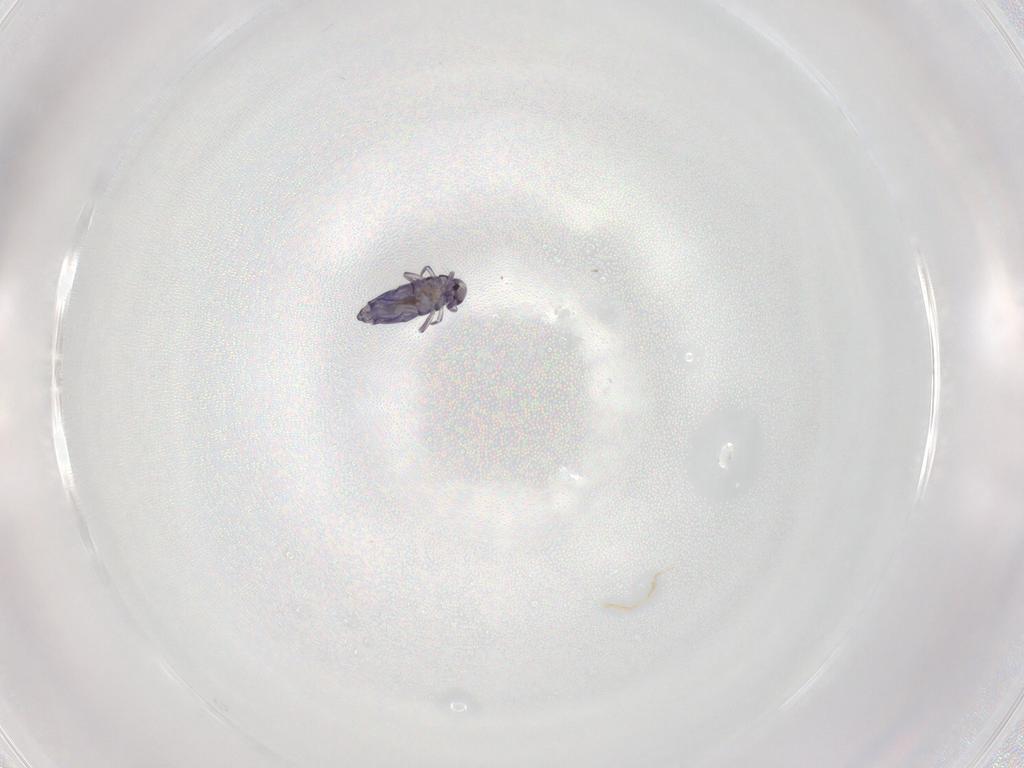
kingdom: Animalia
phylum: Arthropoda
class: Collembola
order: Entomobryomorpha
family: Entomobryidae
